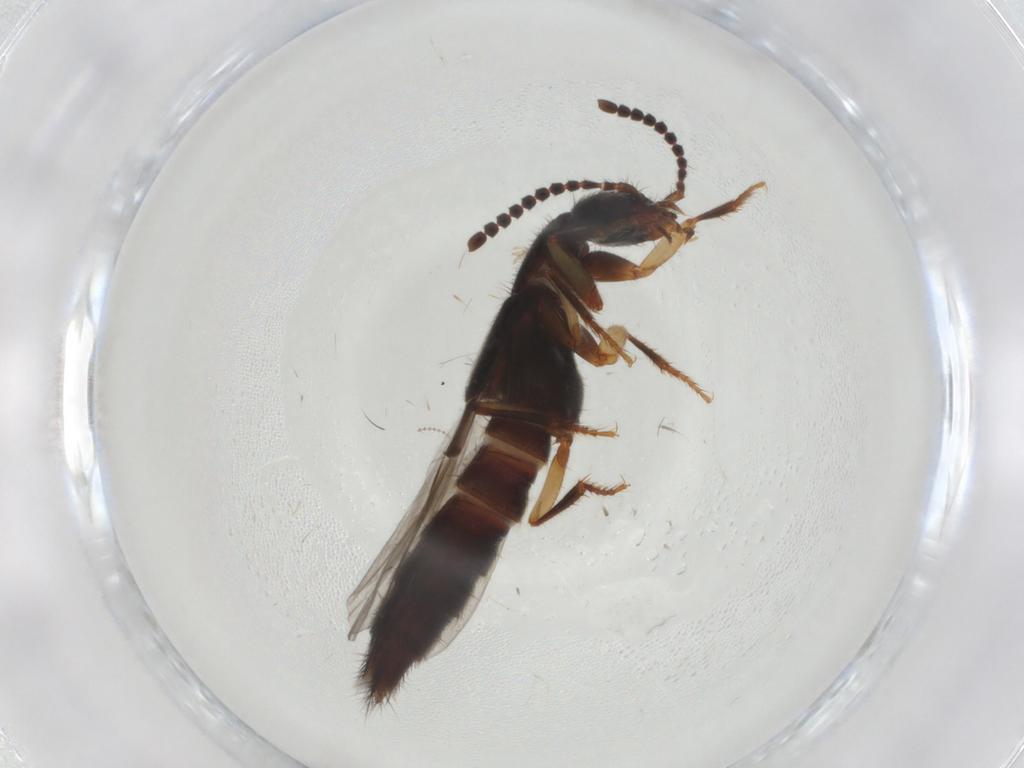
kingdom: Animalia
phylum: Arthropoda
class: Insecta
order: Coleoptera
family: Staphylinidae
